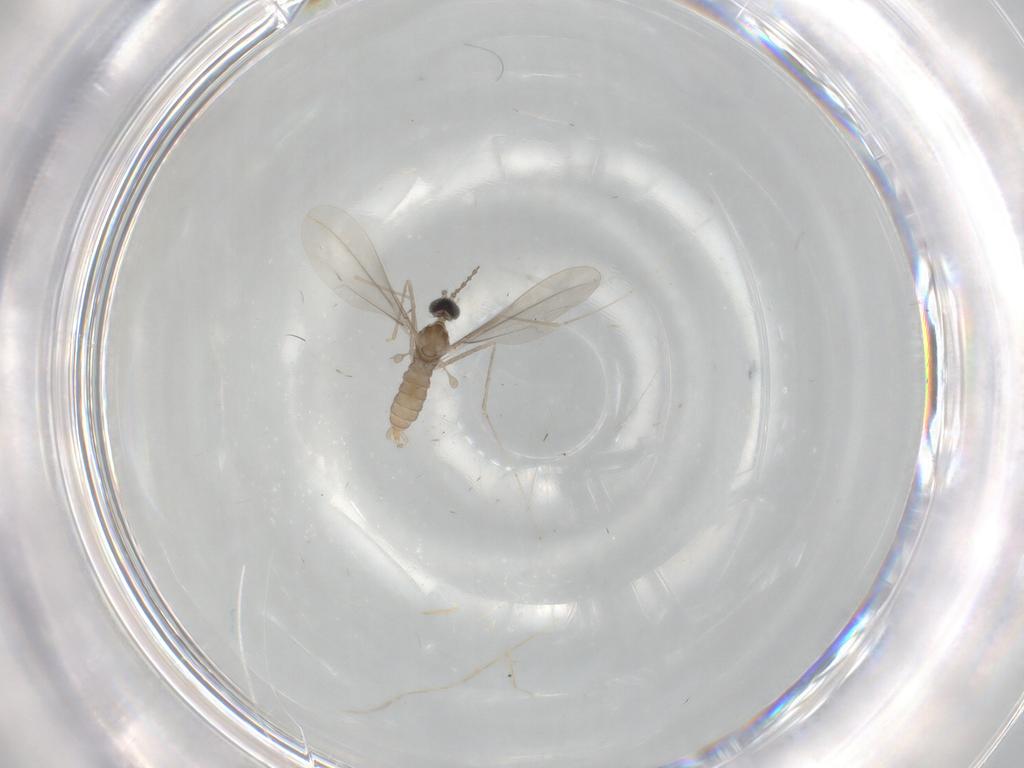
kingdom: Animalia
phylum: Arthropoda
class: Insecta
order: Diptera
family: Cecidomyiidae
